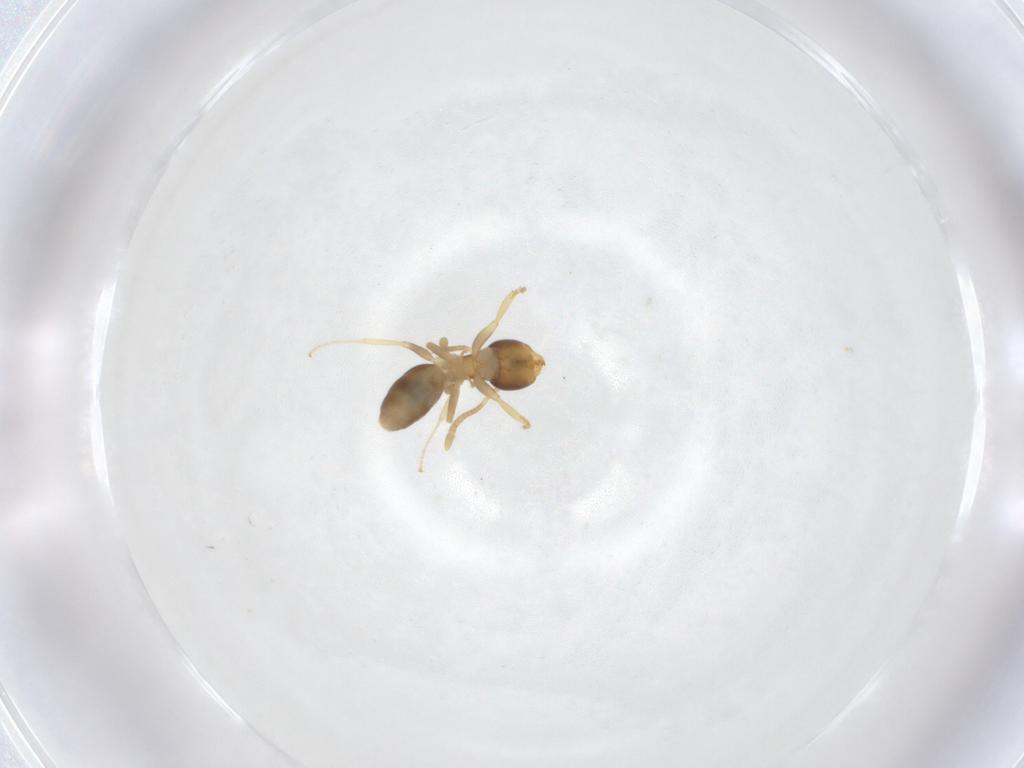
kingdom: Animalia
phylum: Arthropoda
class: Insecta
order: Hymenoptera
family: Formicidae
